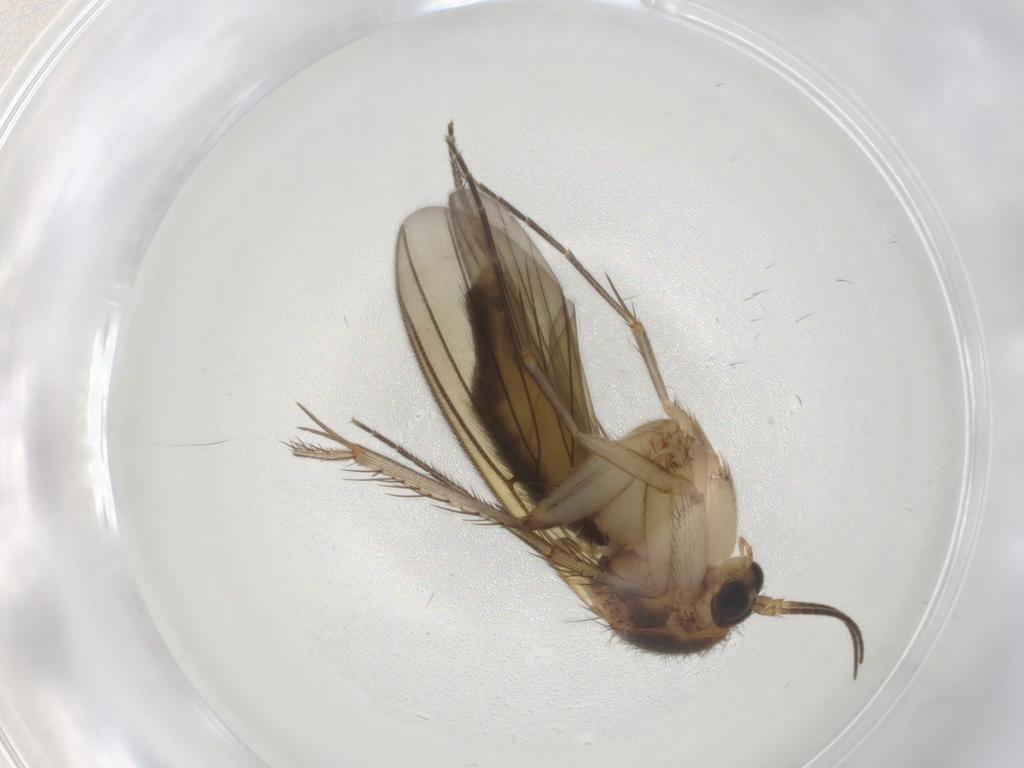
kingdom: Animalia
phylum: Arthropoda
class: Insecta
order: Diptera
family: Mycetophilidae
